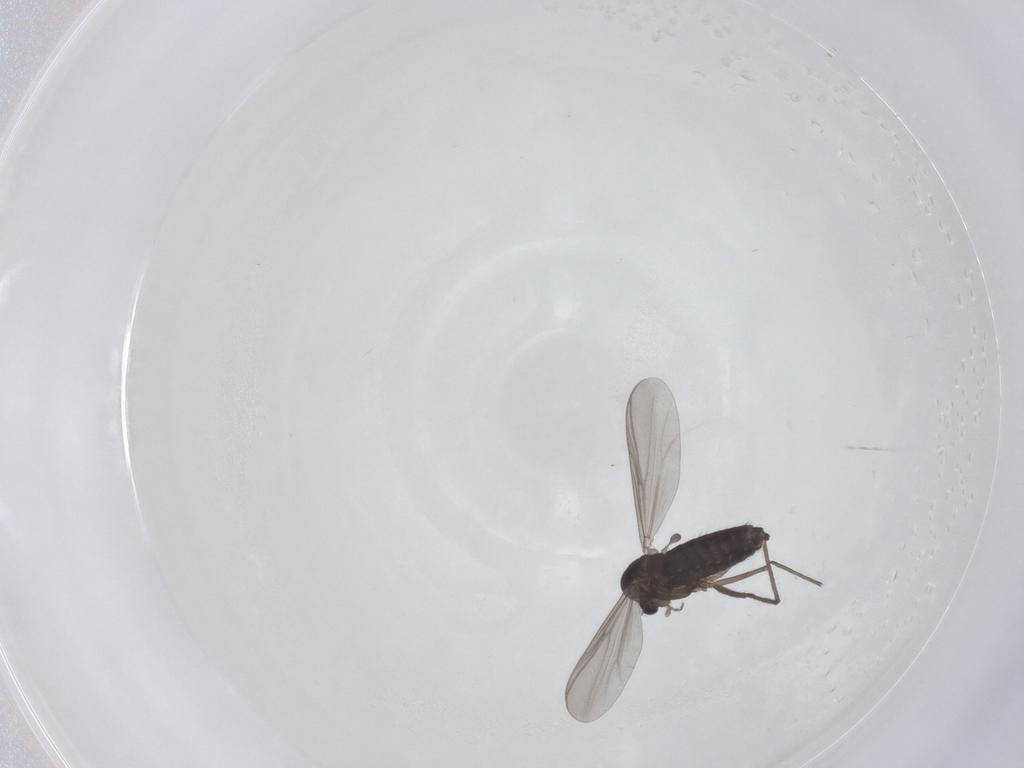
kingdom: Animalia
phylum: Arthropoda
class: Insecta
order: Diptera
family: Chironomidae
